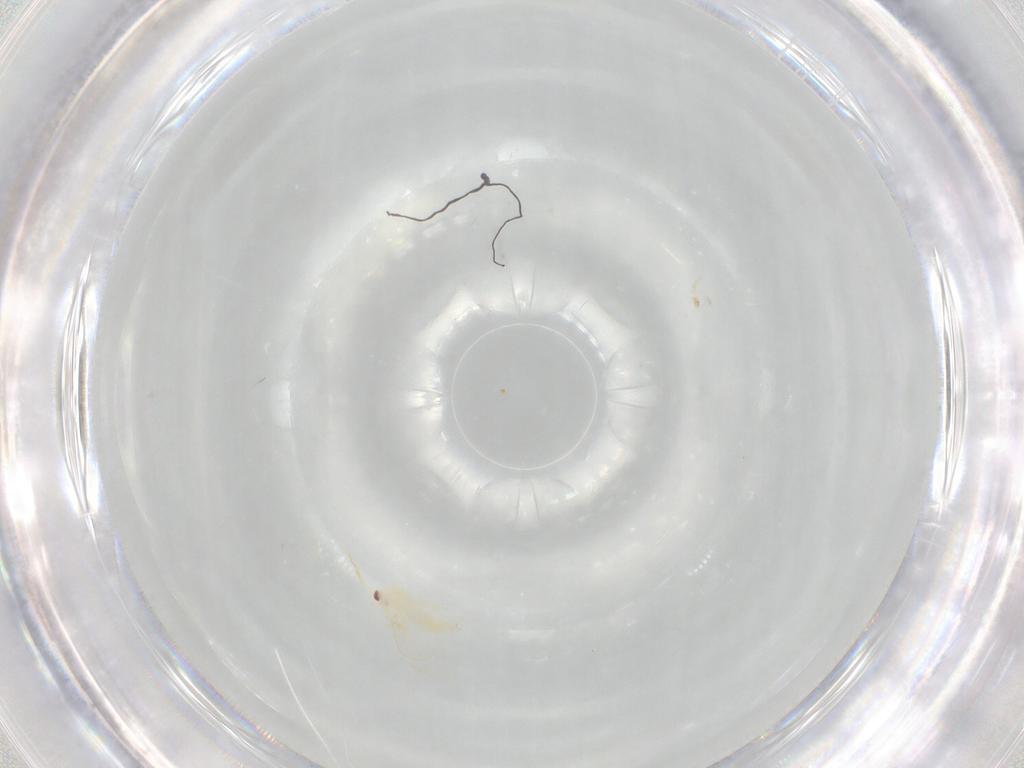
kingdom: Animalia
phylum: Arthropoda
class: Insecta
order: Hemiptera
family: Aleyrodidae
